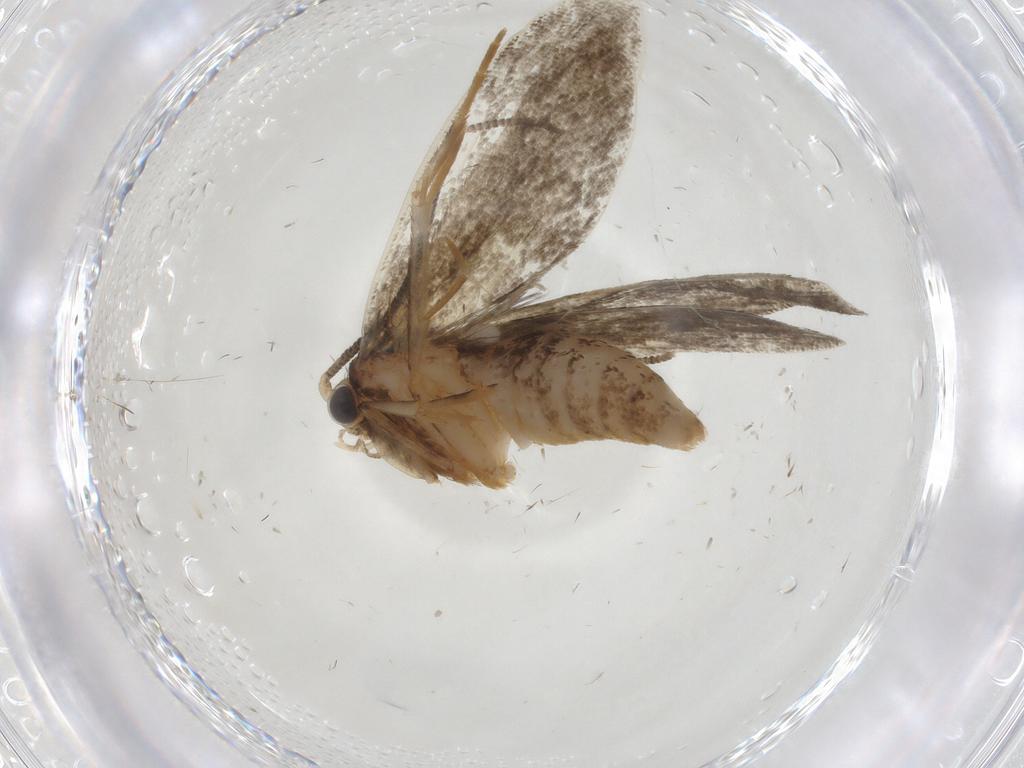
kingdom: Animalia
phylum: Arthropoda
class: Insecta
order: Lepidoptera
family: Tineidae
